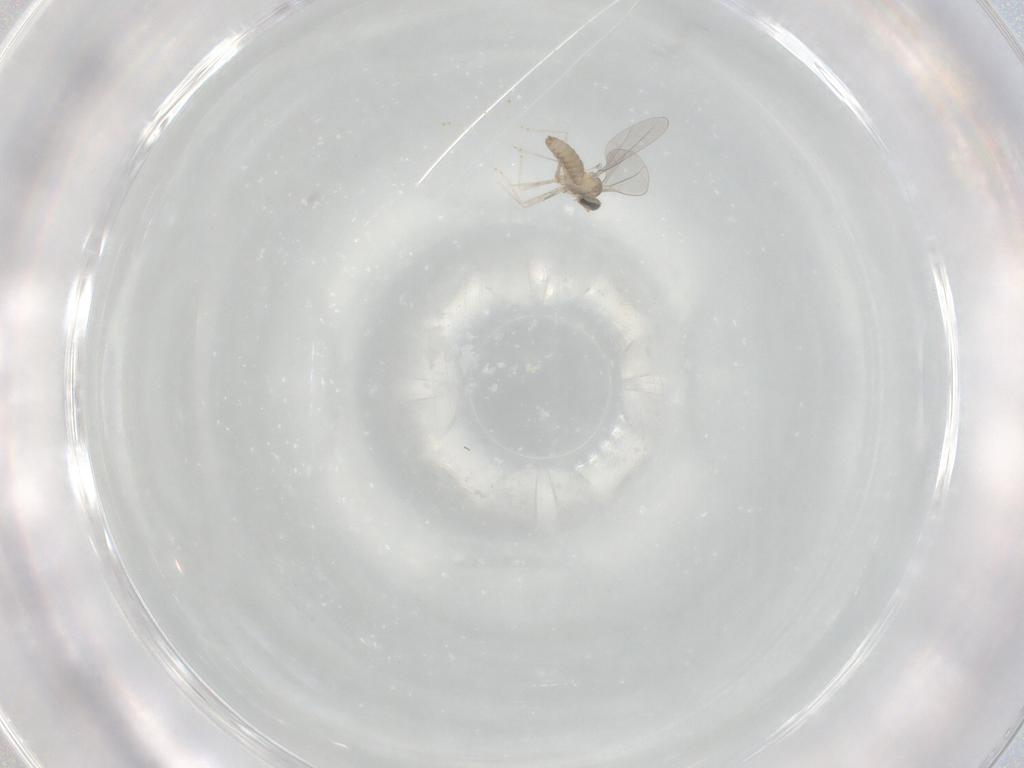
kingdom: Animalia
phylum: Arthropoda
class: Insecta
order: Diptera
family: Cecidomyiidae
